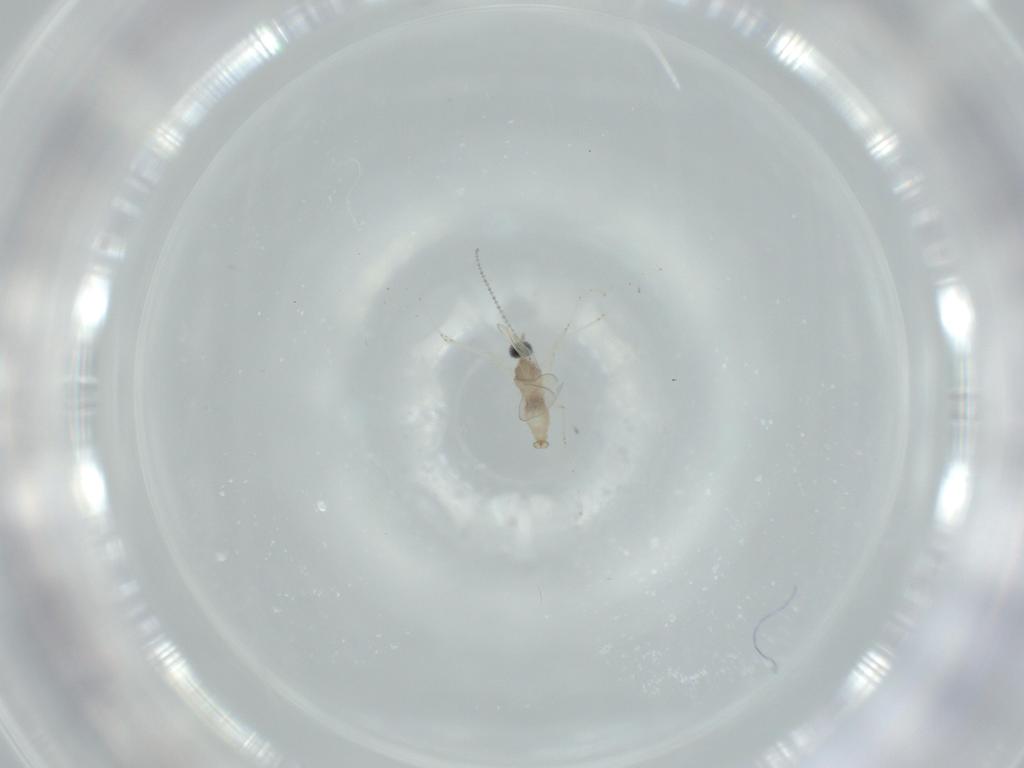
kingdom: Animalia
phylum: Arthropoda
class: Insecta
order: Diptera
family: Cecidomyiidae
